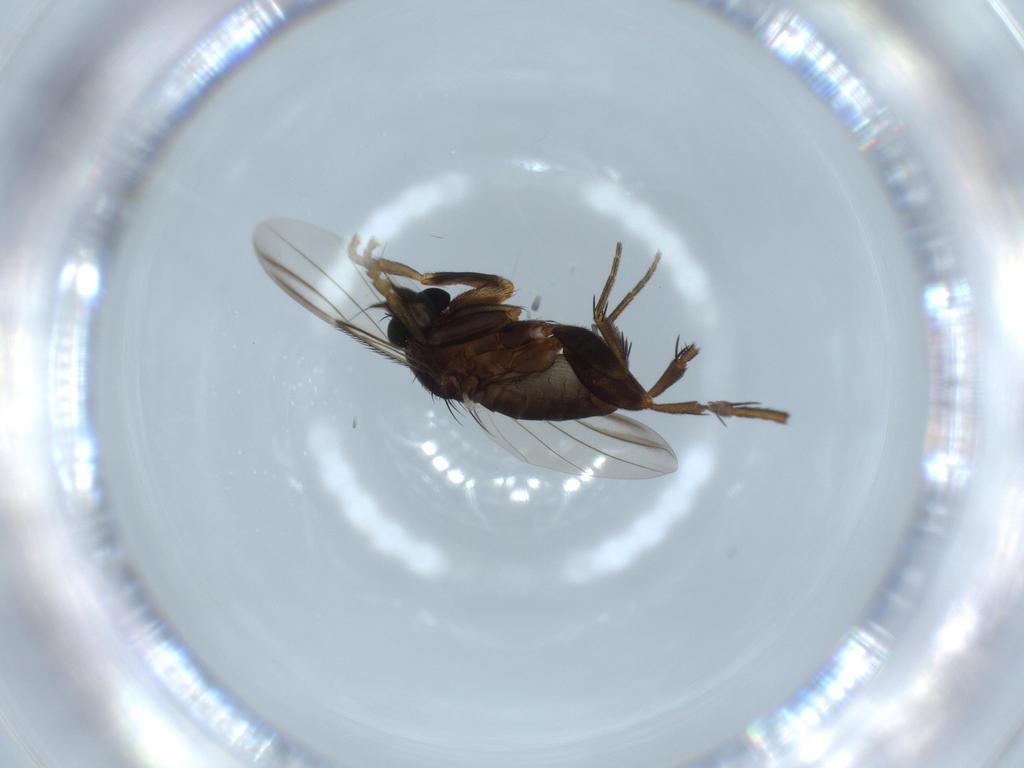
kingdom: Animalia
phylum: Arthropoda
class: Insecta
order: Diptera
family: Phoridae
